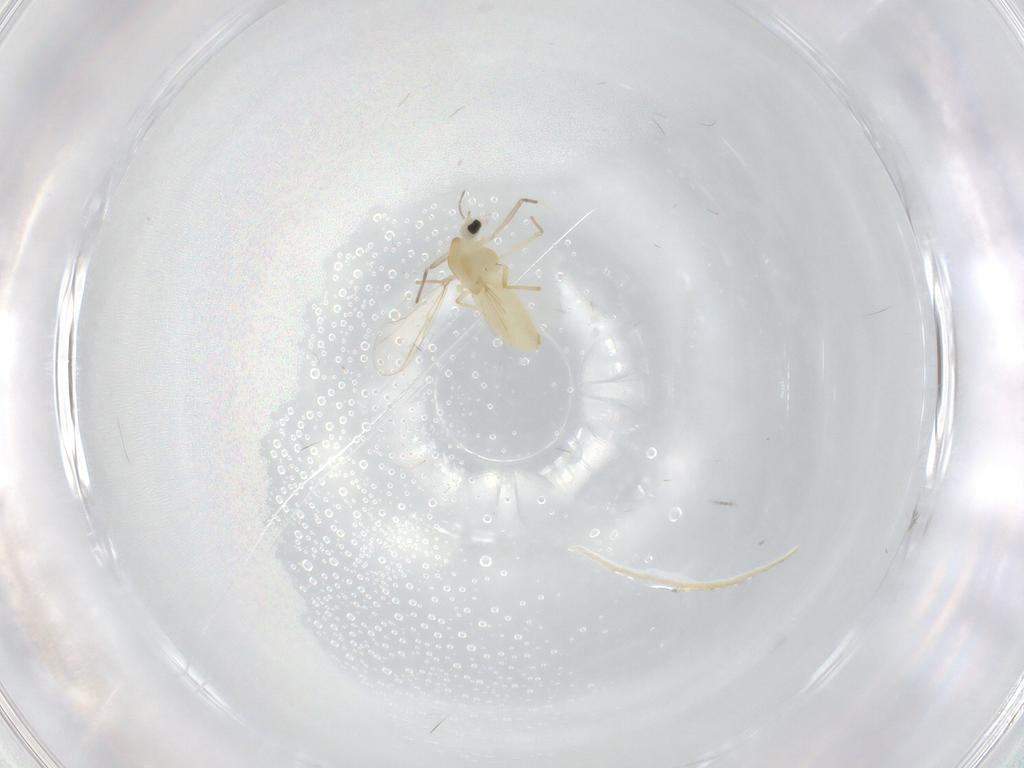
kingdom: Animalia
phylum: Arthropoda
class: Insecta
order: Diptera
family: Chironomidae
